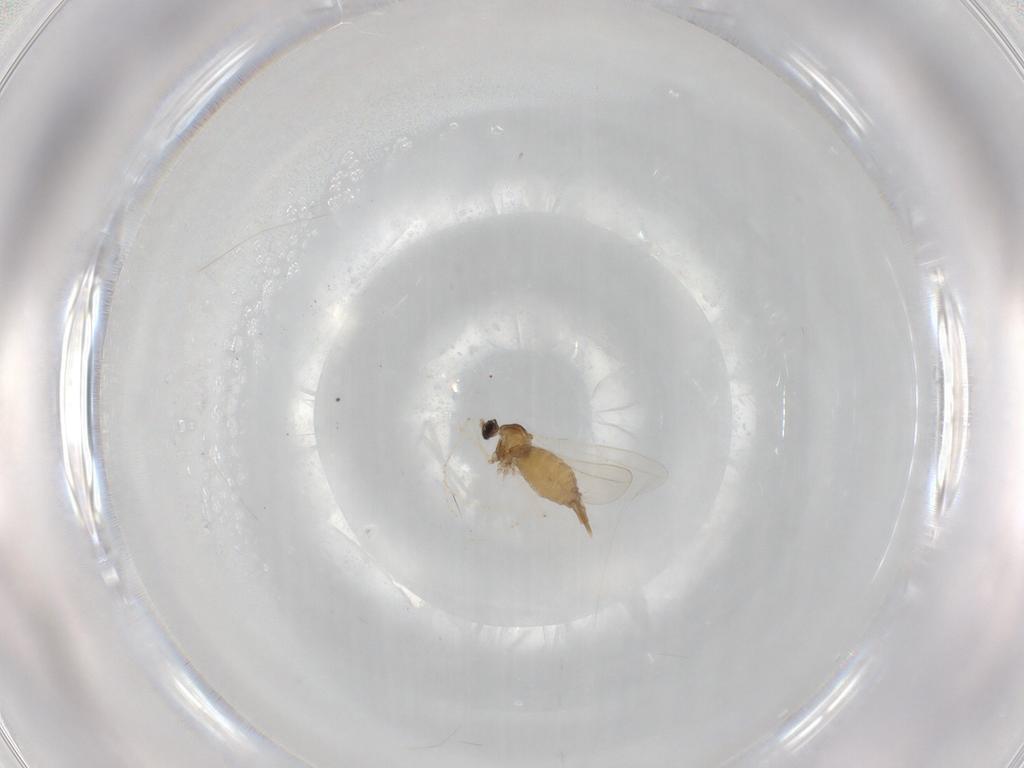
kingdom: Animalia
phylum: Arthropoda
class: Insecta
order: Diptera
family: Cecidomyiidae
